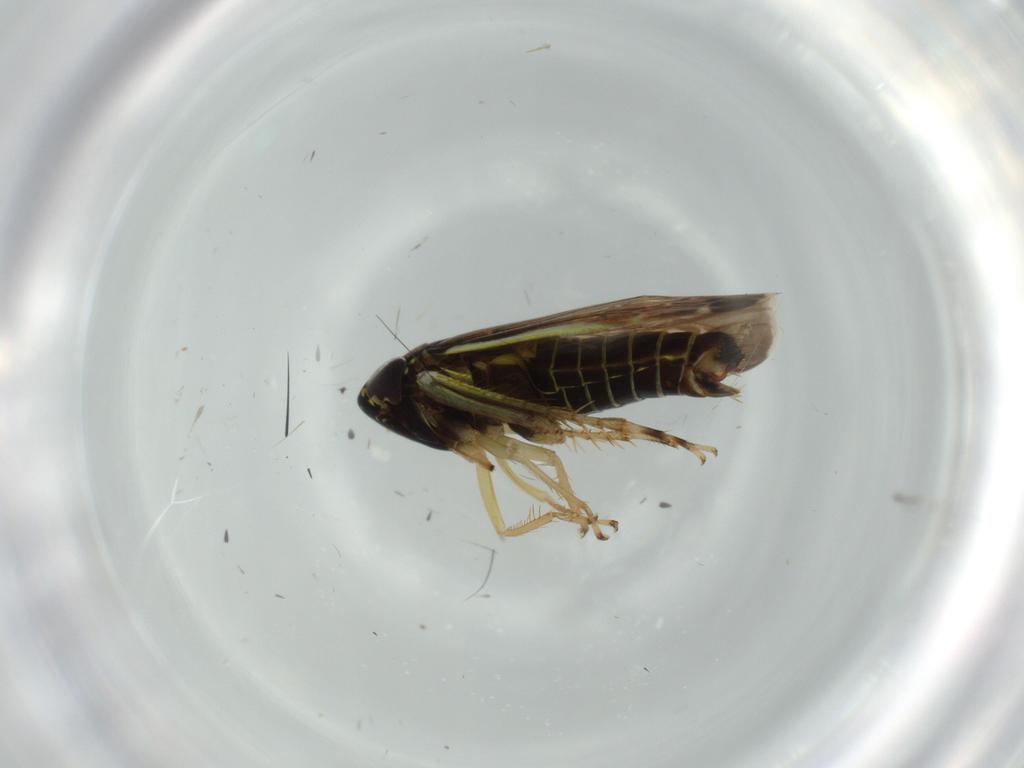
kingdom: Animalia
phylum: Arthropoda
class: Insecta
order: Hemiptera
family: Cicadellidae
